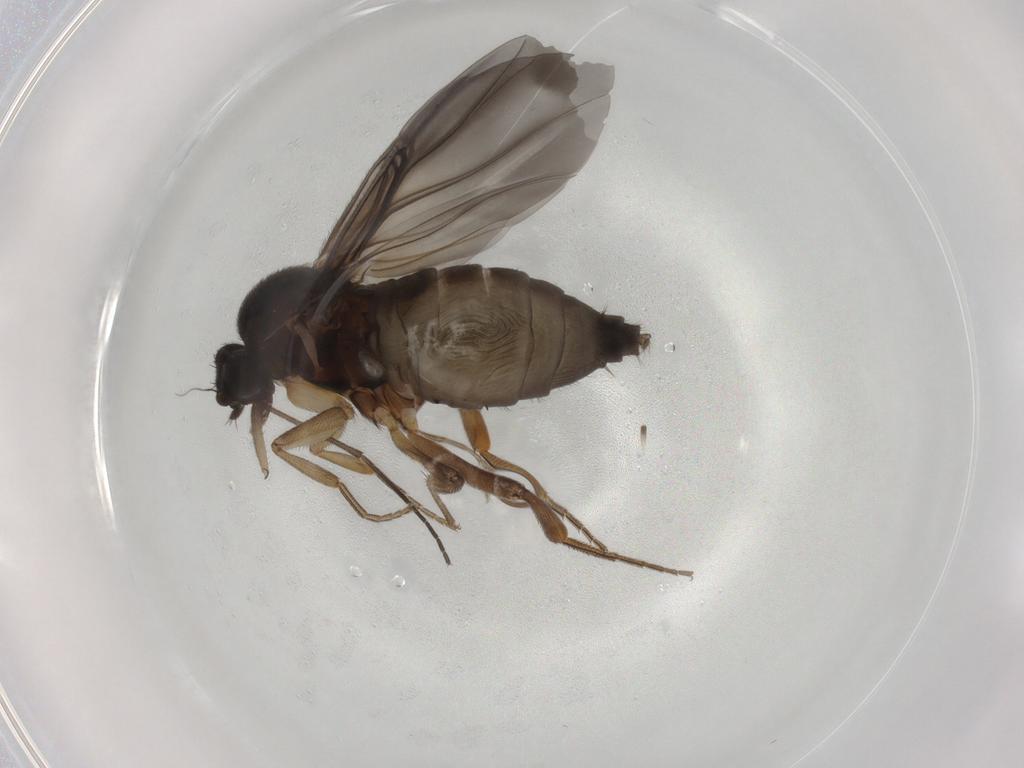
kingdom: Animalia
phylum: Arthropoda
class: Insecta
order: Diptera
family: Phoridae
